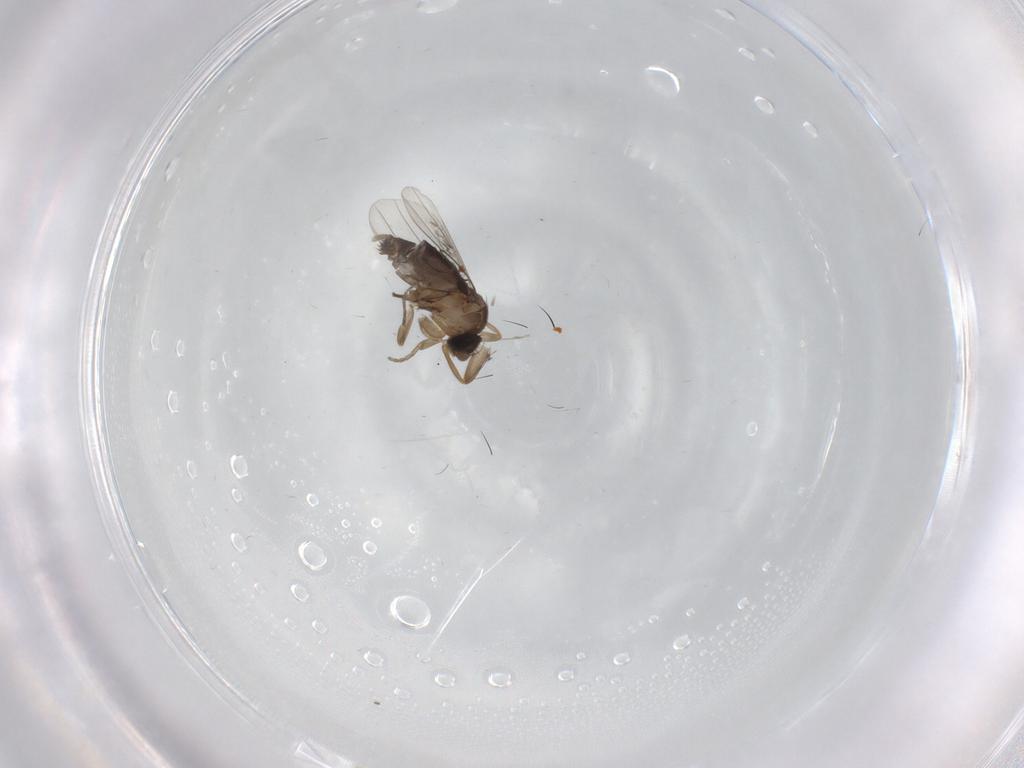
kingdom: Animalia
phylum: Arthropoda
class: Insecta
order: Diptera
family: Phoridae
